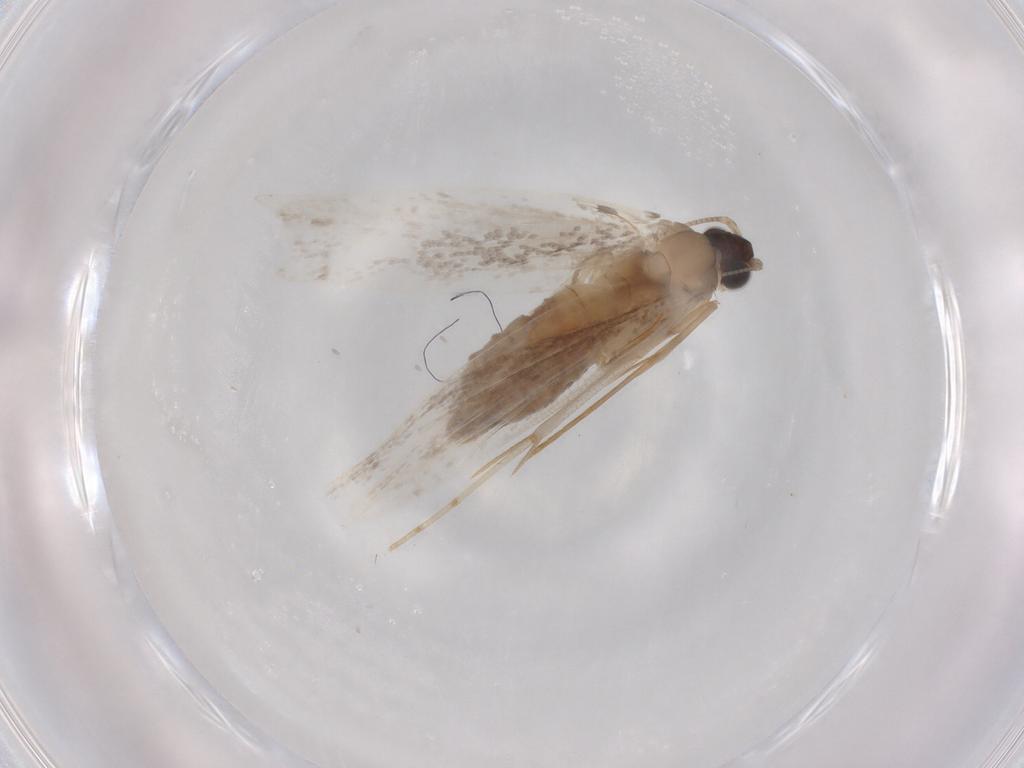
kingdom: Animalia
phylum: Arthropoda
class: Insecta
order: Lepidoptera
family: Tineidae
